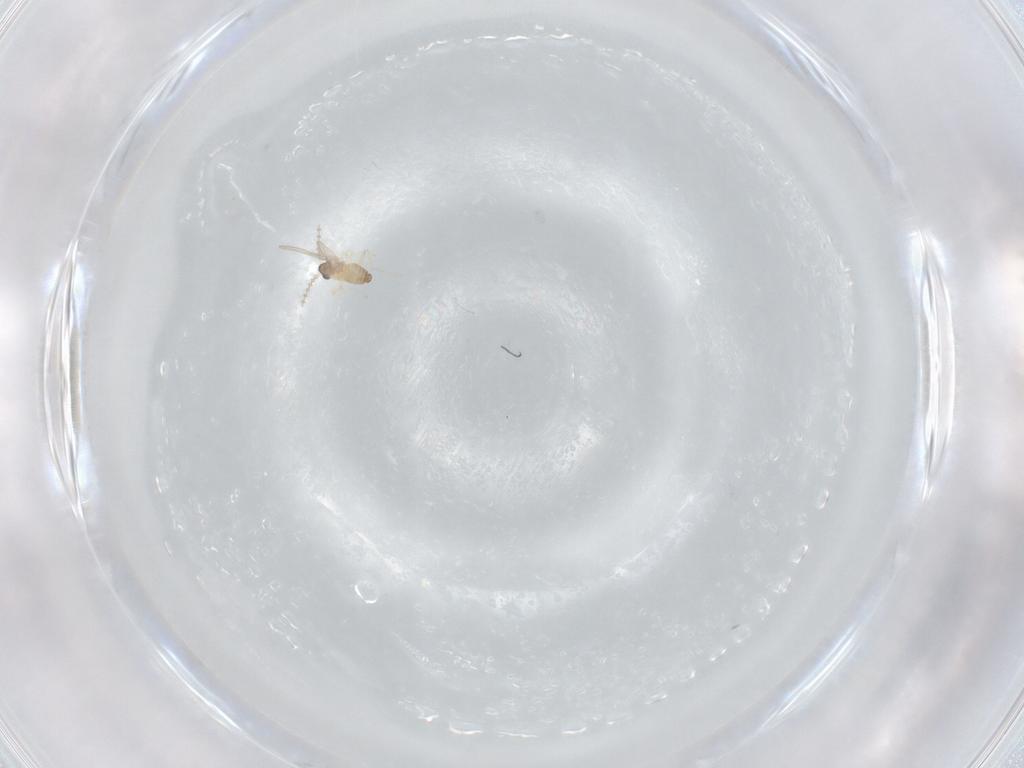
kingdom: Animalia
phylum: Arthropoda
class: Insecta
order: Diptera
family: Cecidomyiidae
